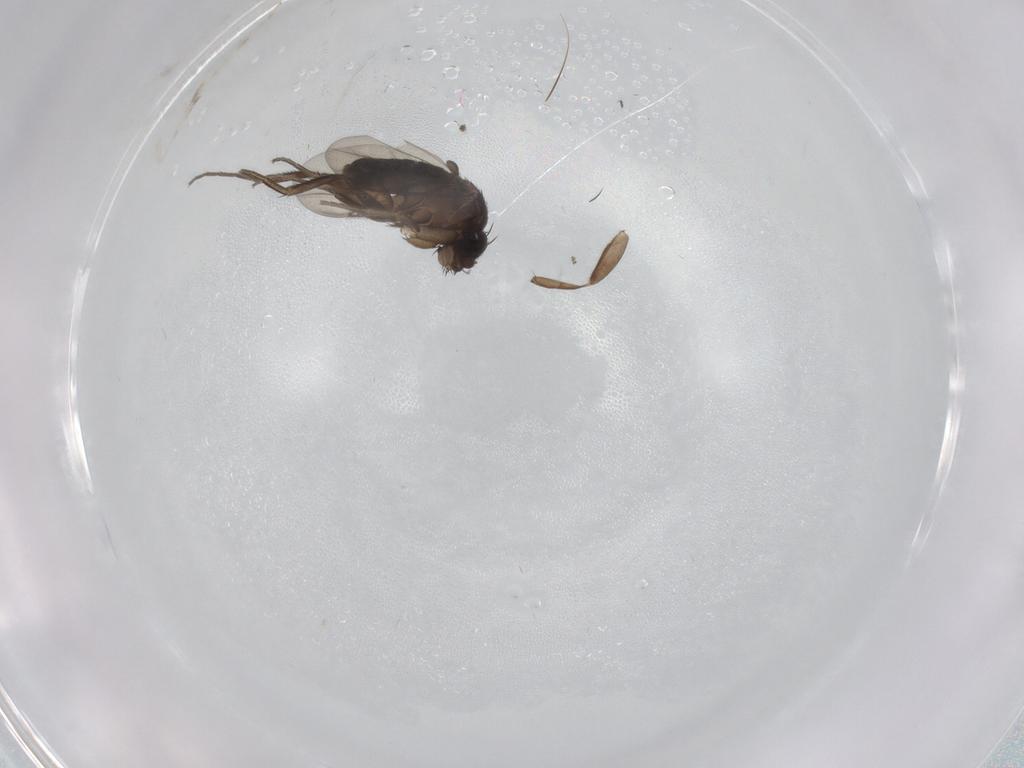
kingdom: Animalia
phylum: Arthropoda
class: Insecta
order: Diptera
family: Phoridae
